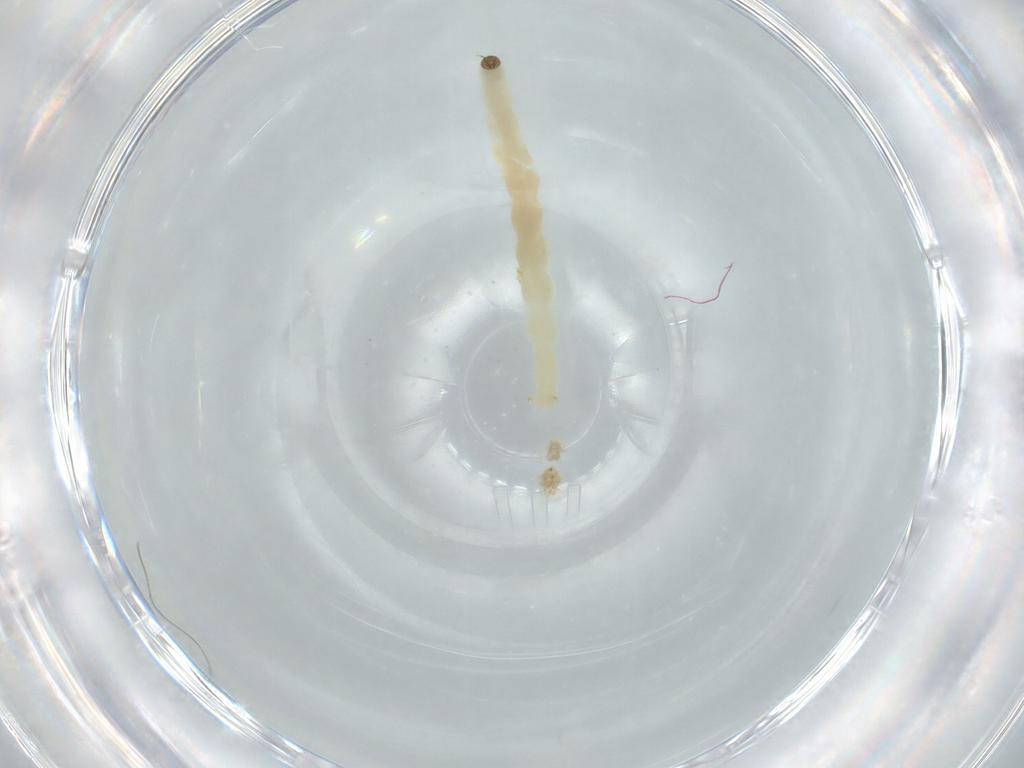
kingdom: Animalia
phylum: Arthropoda
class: Insecta
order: Diptera
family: Chironomidae
